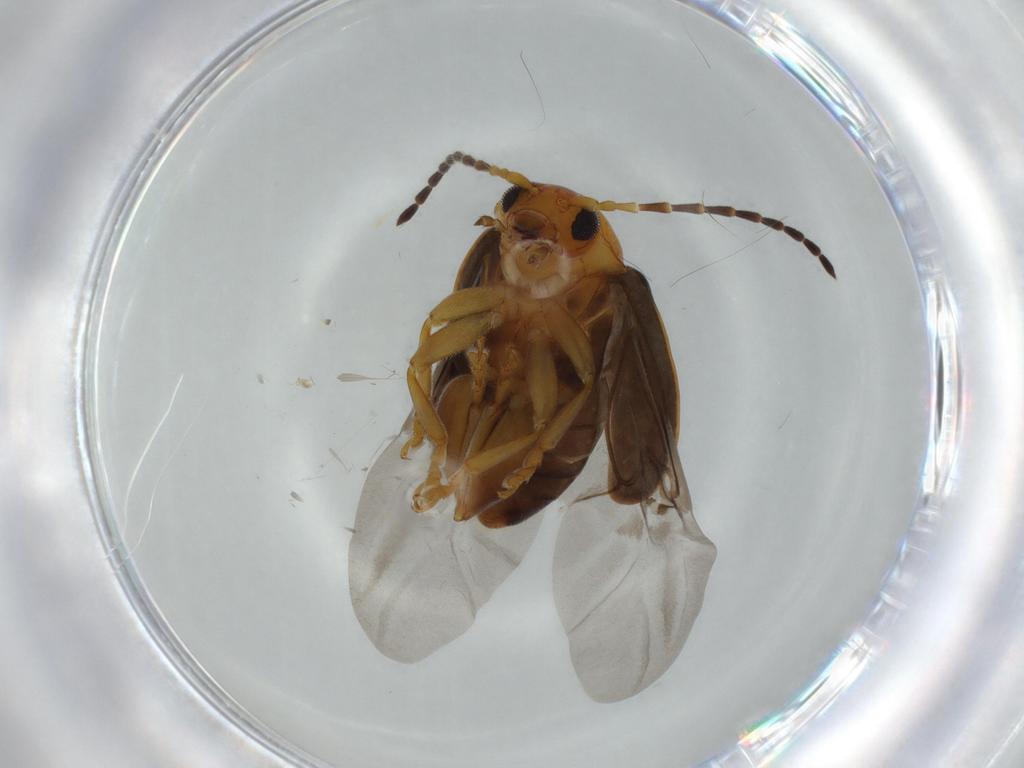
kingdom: Animalia
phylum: Arthropoda
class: Insecta
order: Coleoptera
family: Chrysomelidae
